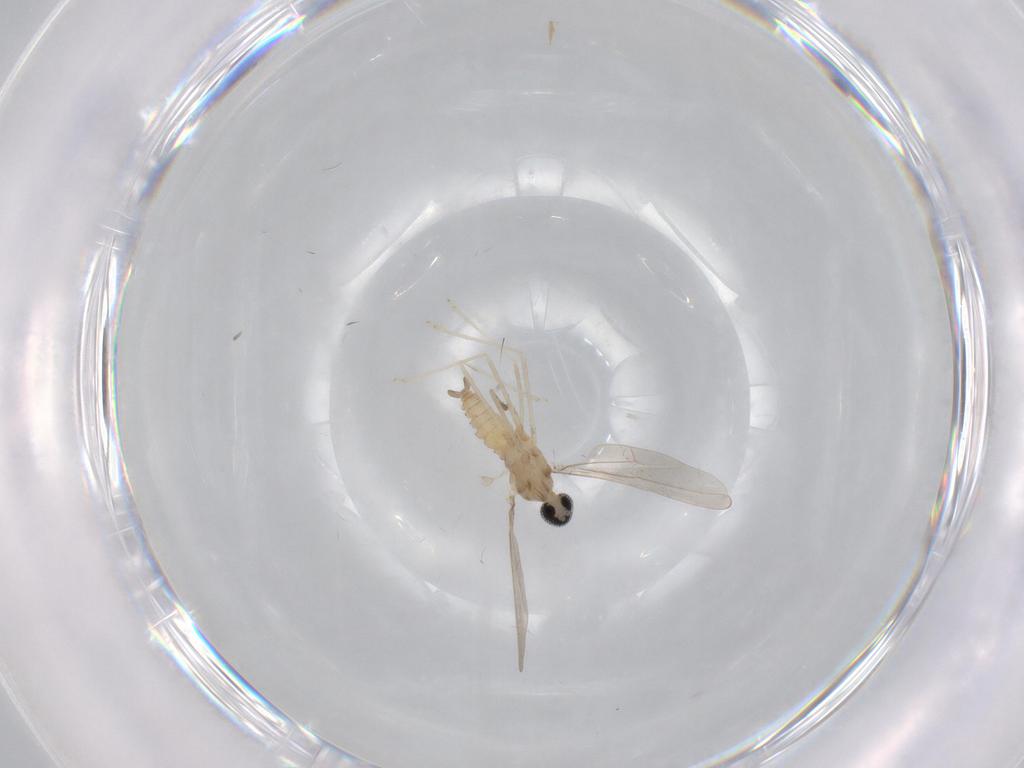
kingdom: Animalia
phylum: Arthropoda
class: Insecta
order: Diptera
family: Cecidomyiidae
